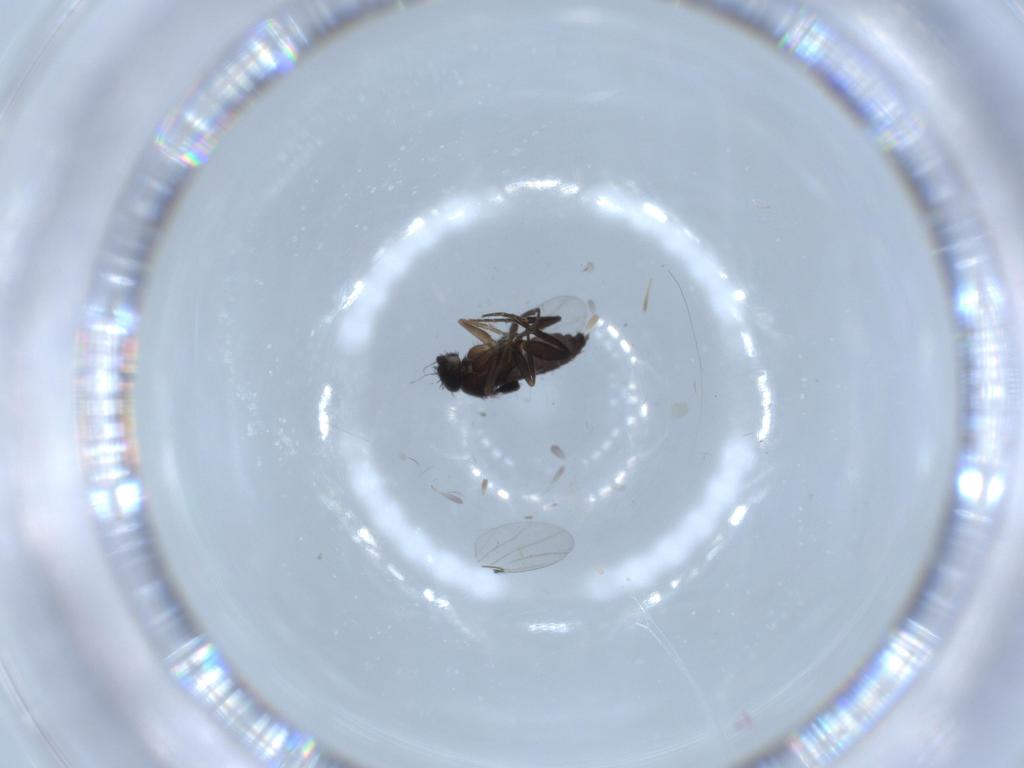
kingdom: Animalia
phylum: Arthropoda
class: Insecta
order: Diptera
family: Phoridae
